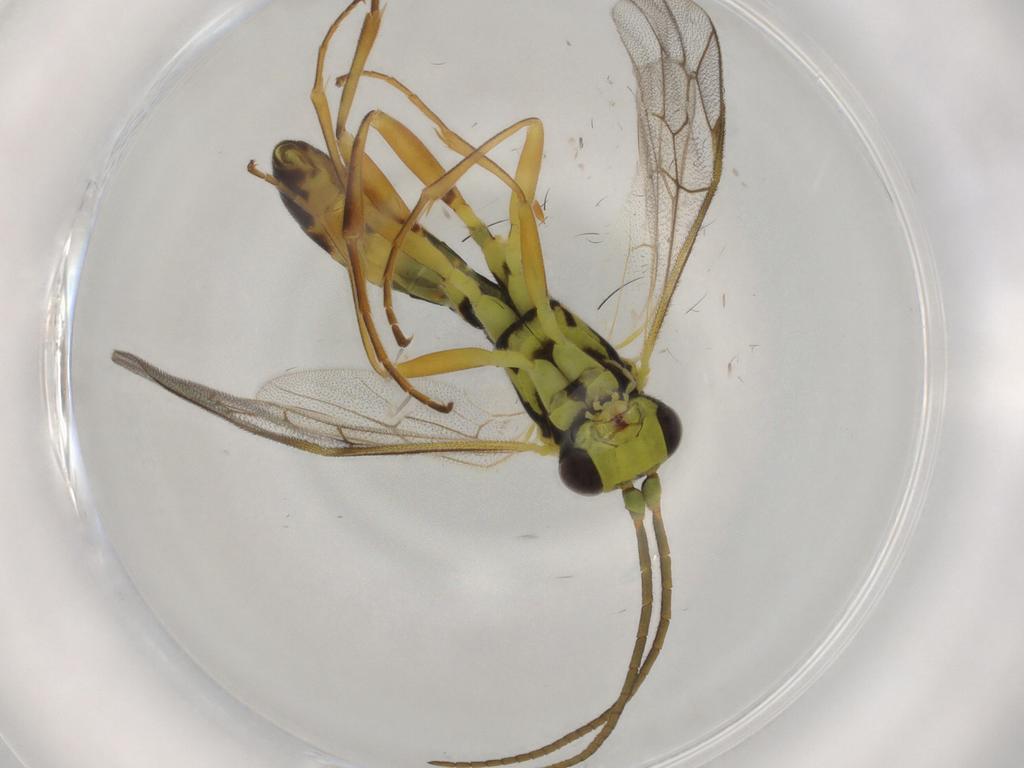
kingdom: Animalia
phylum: Arthropoda
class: Insecta
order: Hymenoptera
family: Ichneumonidae
